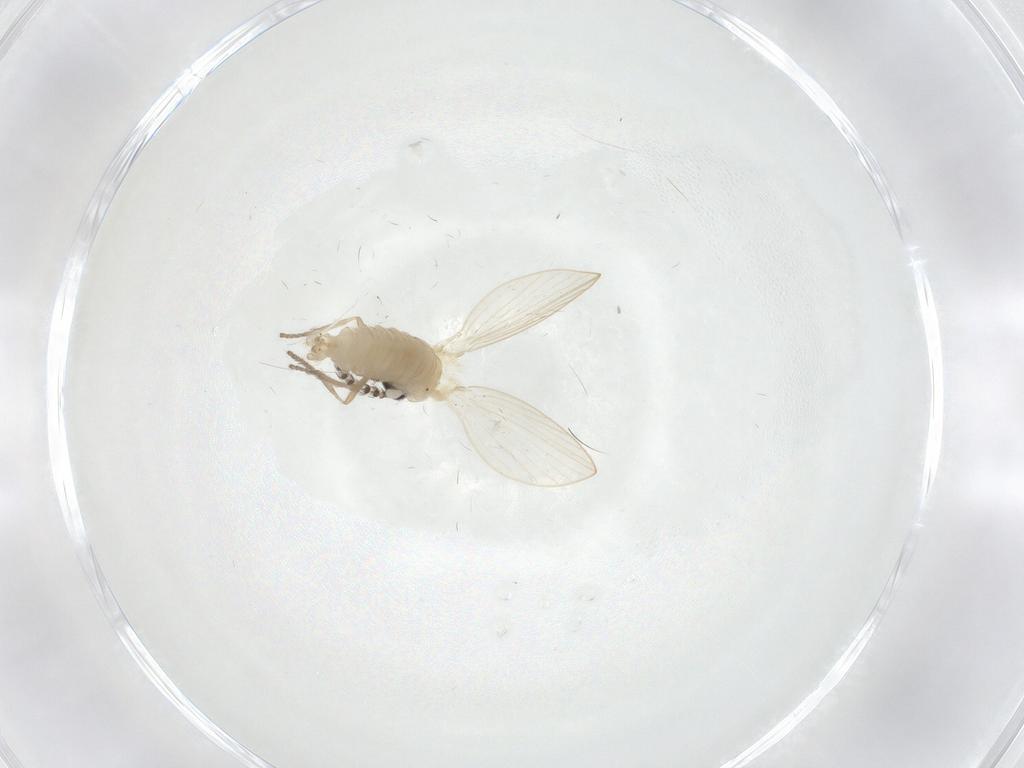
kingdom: Animalia
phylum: Arthropoda
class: Insecta
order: Diptera
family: Psychodidae
